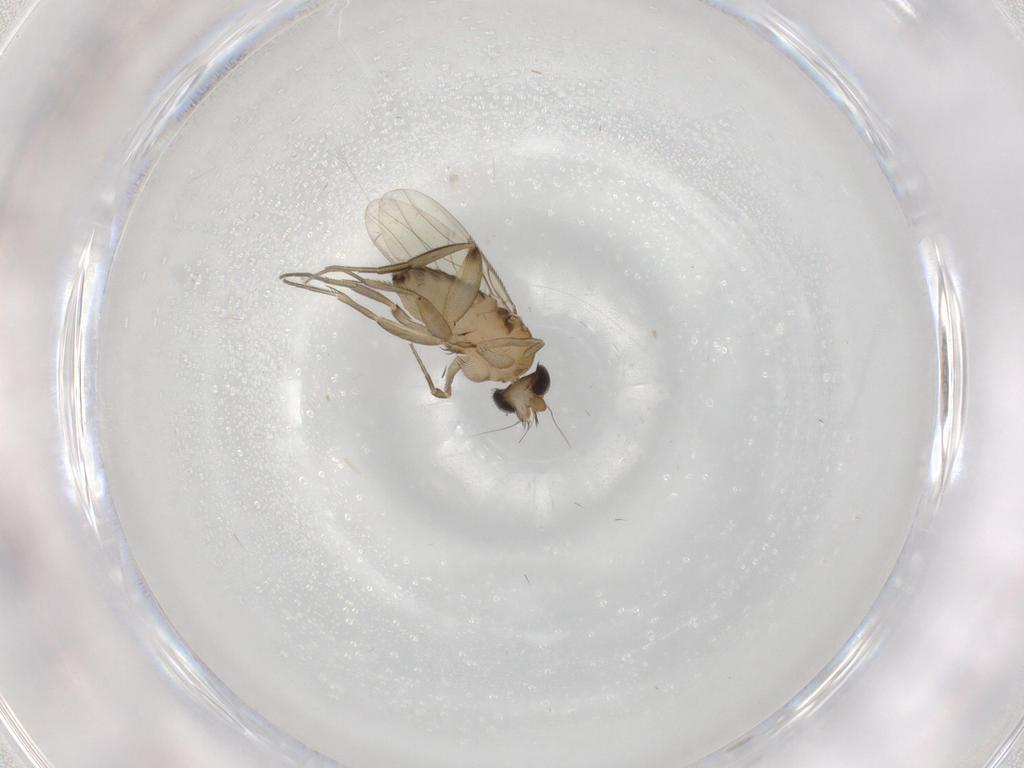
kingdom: Animalia
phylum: Arthropoda
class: Insecta
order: Diptera
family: Phoridae
